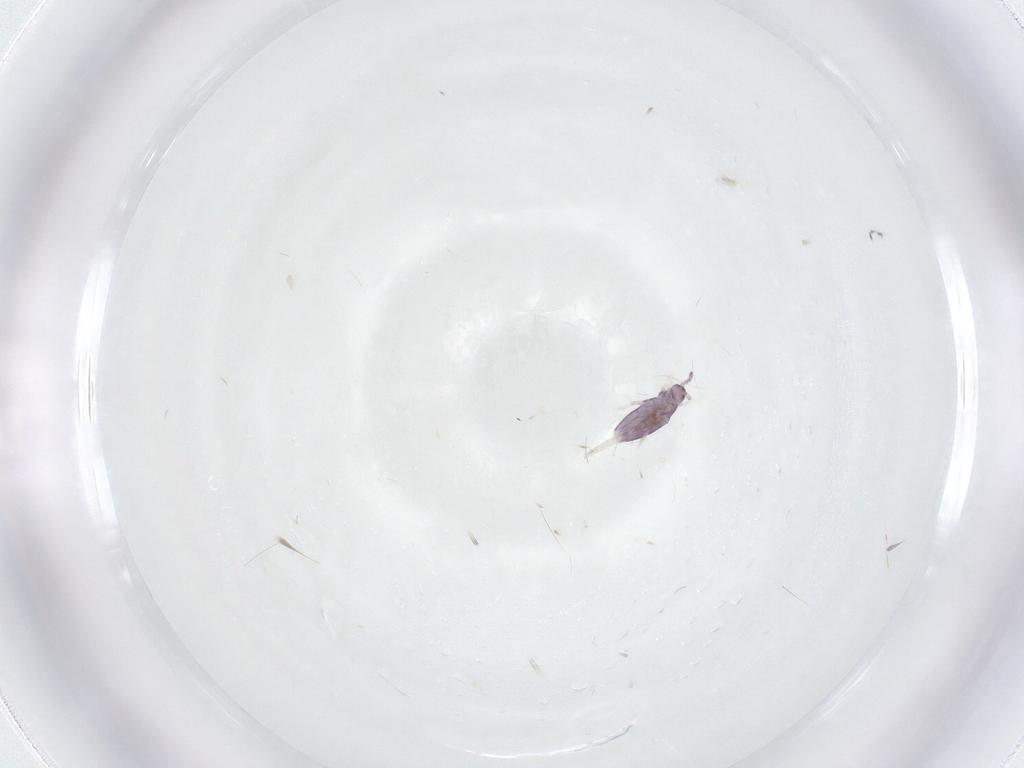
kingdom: Animalia
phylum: Arthropoda
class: Collembola
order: Entomobryomorpha
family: Entomobryidae
